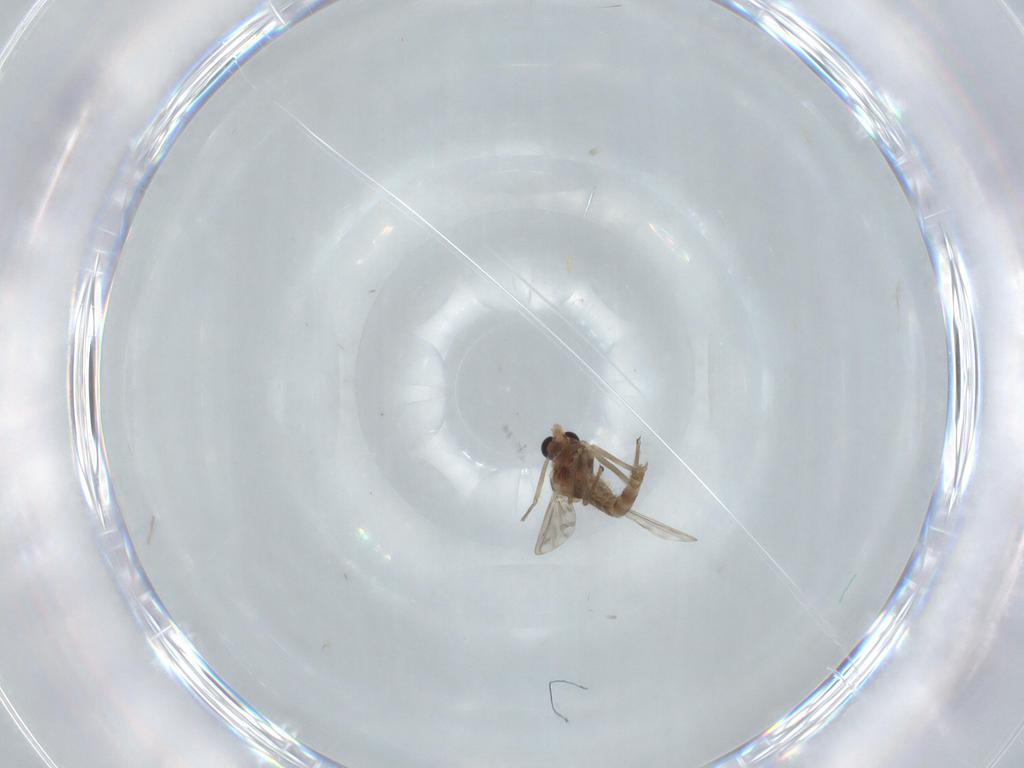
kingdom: Animalia
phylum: Arthropoda
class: Insecta
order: Diptera
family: Chironomidae
